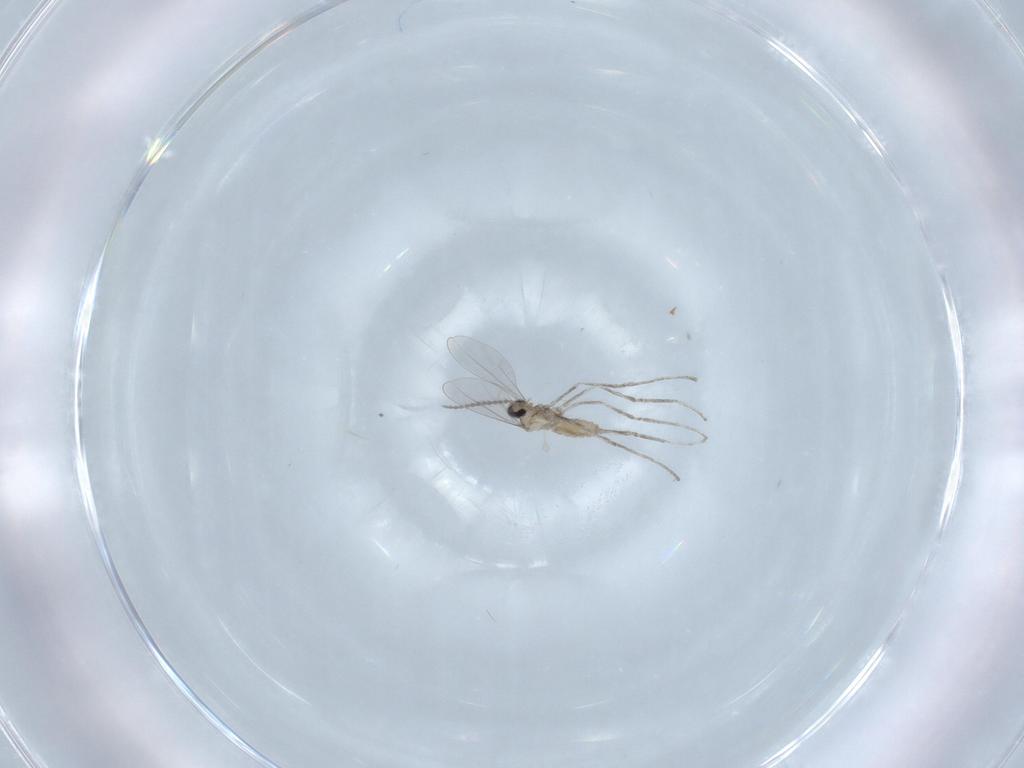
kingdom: Animalia
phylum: Arthropoda
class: Insecta
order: Diptera
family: Cecidomyiidae
